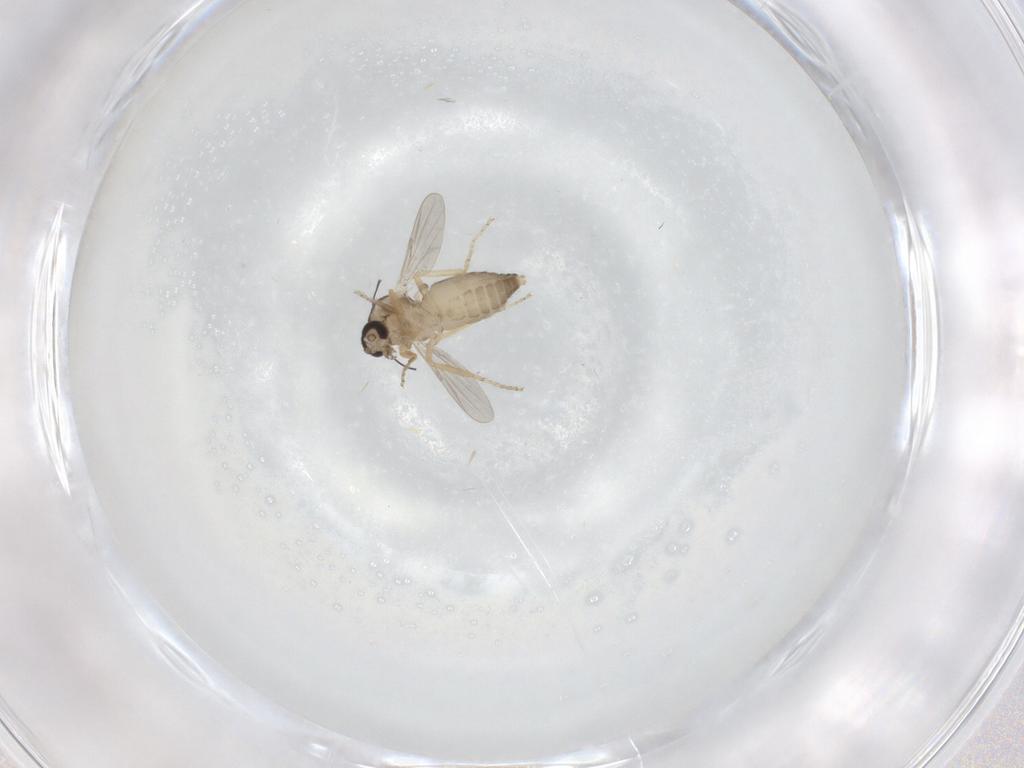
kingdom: Animalia
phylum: Arthropoda
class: Insecta
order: Diptera
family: Ceratopogonidae
